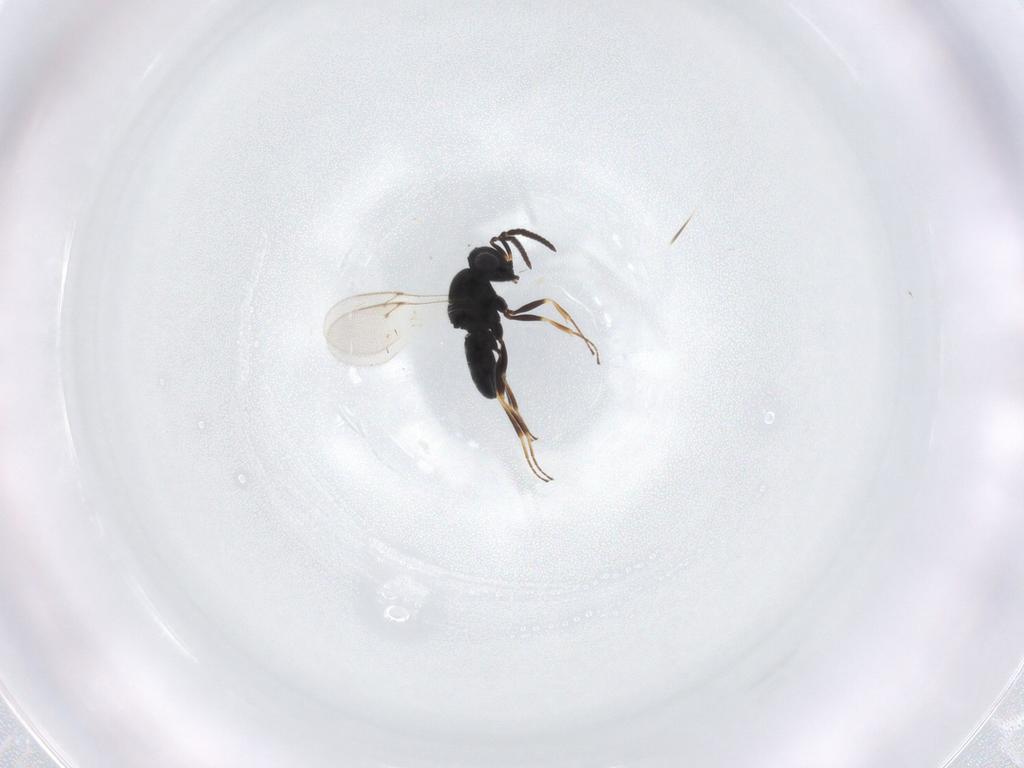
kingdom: Animalia
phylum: Arthropoda
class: Insecta
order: Hymenoptera
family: Scelionidae
